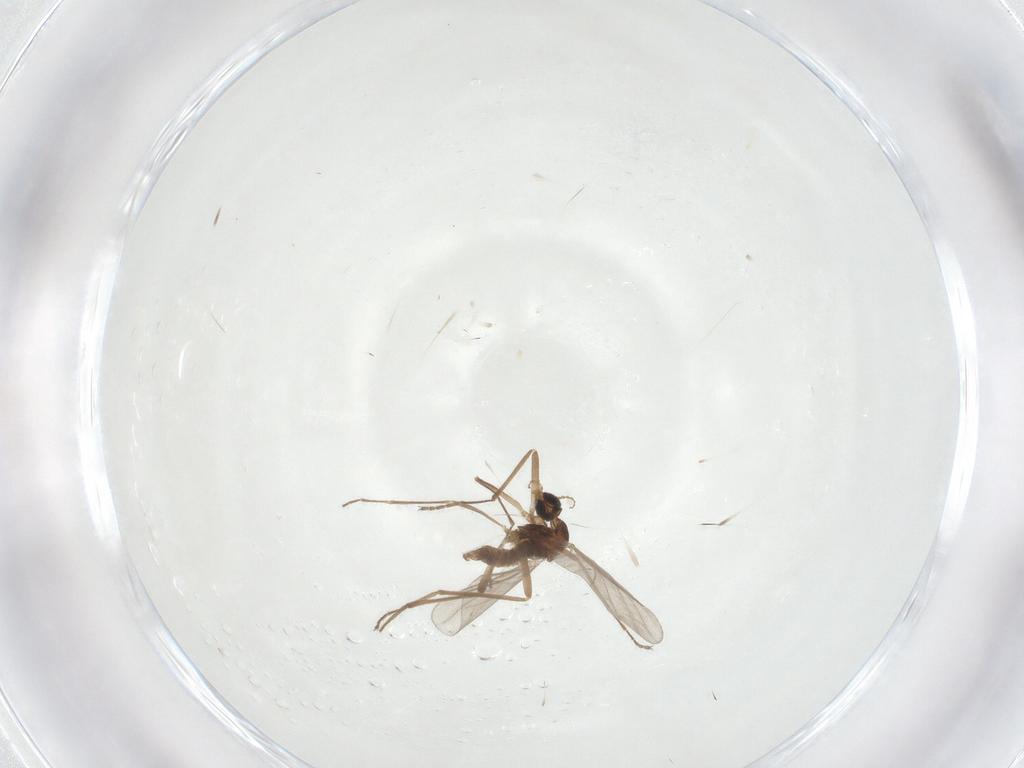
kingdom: Animalia
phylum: Arthropoda
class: Insecta
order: Diptera
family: Cecidomyiidae
